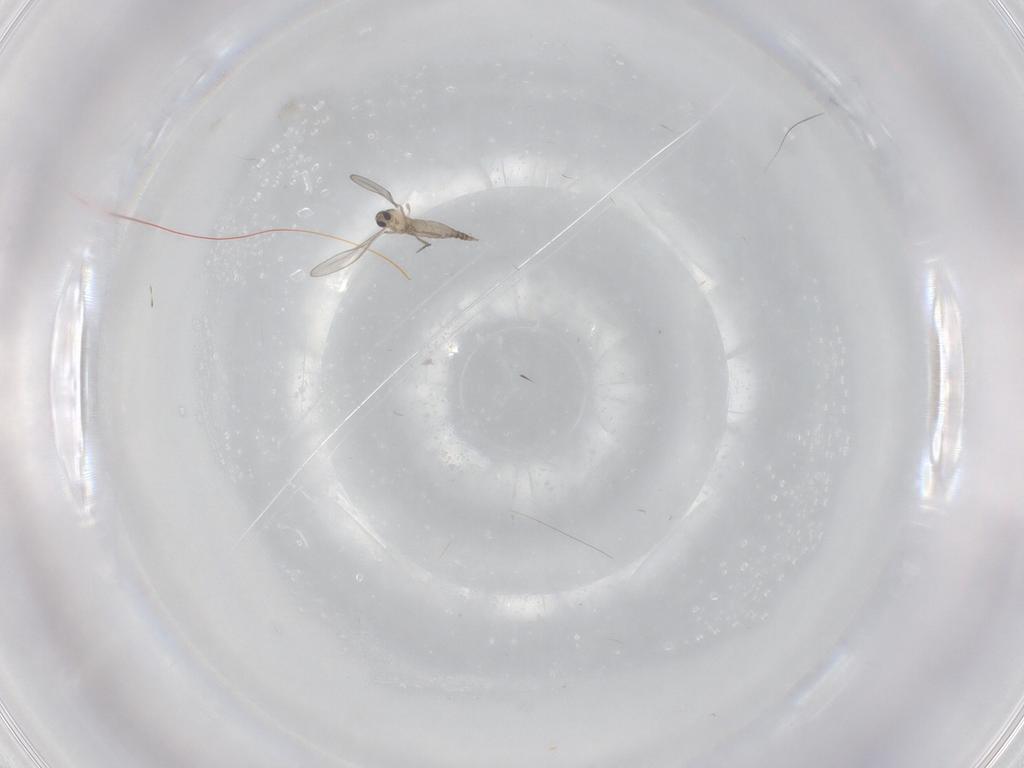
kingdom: Animalia
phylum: Arthropoda
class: Insecta
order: Diptera
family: Cecidomyiidae
